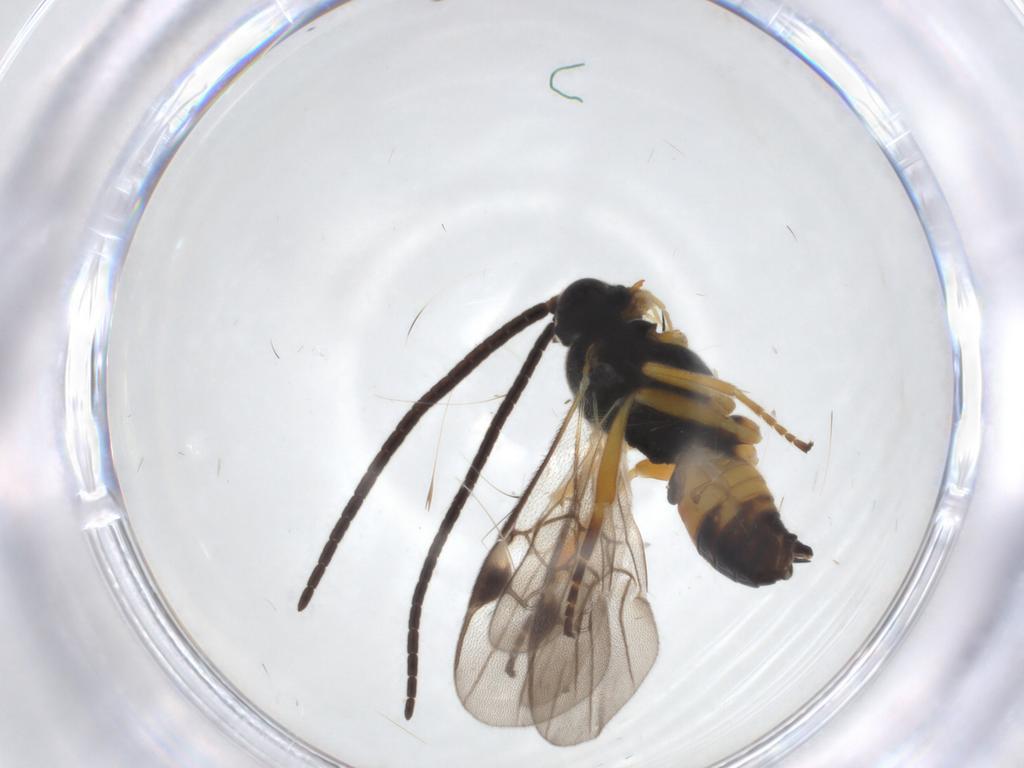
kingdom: Animalia
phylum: Arthropoda
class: Insecta
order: Hymenoptera
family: Braconidae
